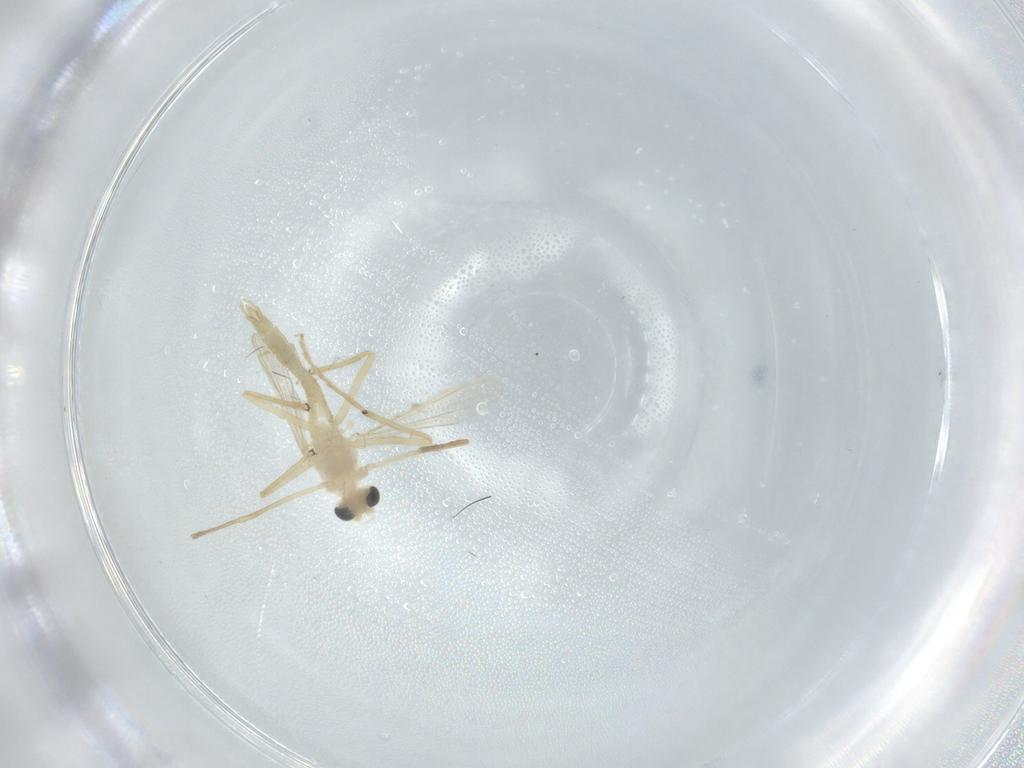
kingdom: Animalia
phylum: Arthropoda
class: Insecta
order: Diptera
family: Chironomidae
